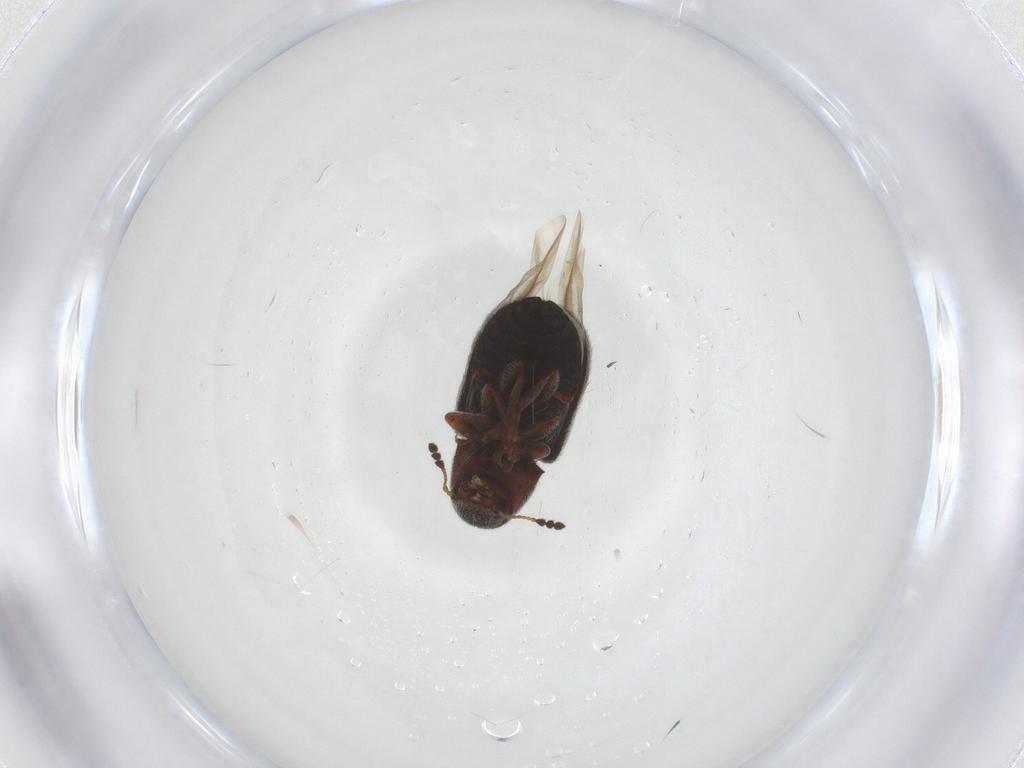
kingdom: Animalia
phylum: Arthropoda
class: Insecta
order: Coleoptera
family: Anthribidae
